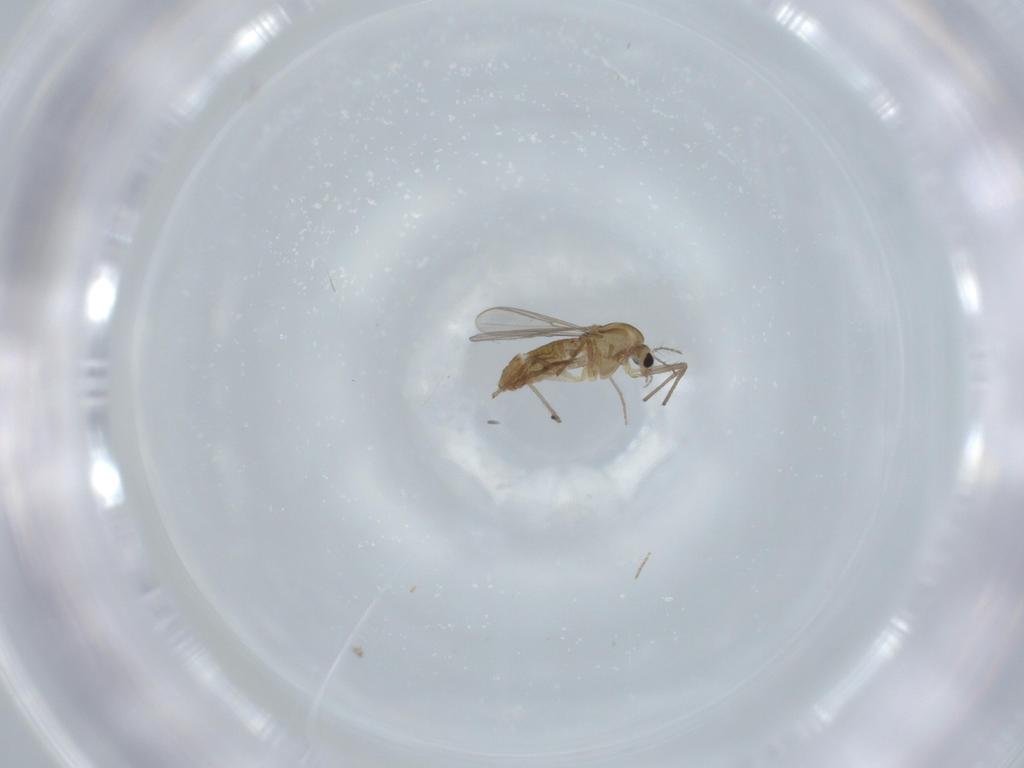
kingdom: Animalia
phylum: Arthropoda
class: Insecta
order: Diptera
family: Chironomidae
